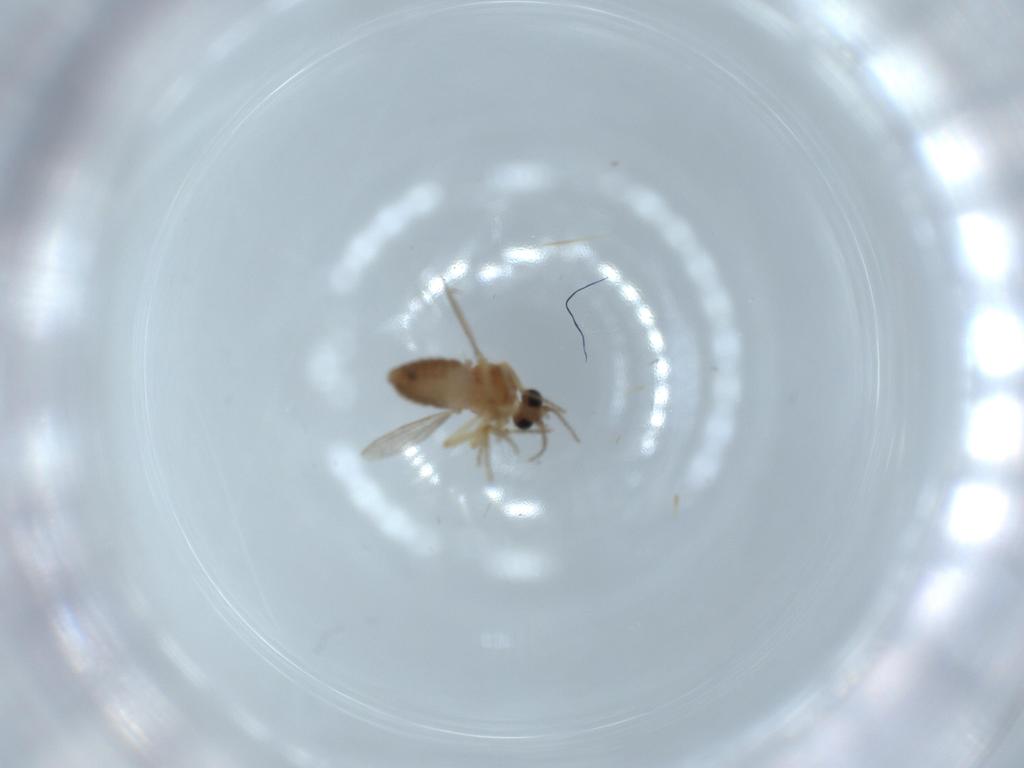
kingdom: Animalia
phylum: Arthropoda
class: Insecta
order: Diptera
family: Ceratopogonidae
